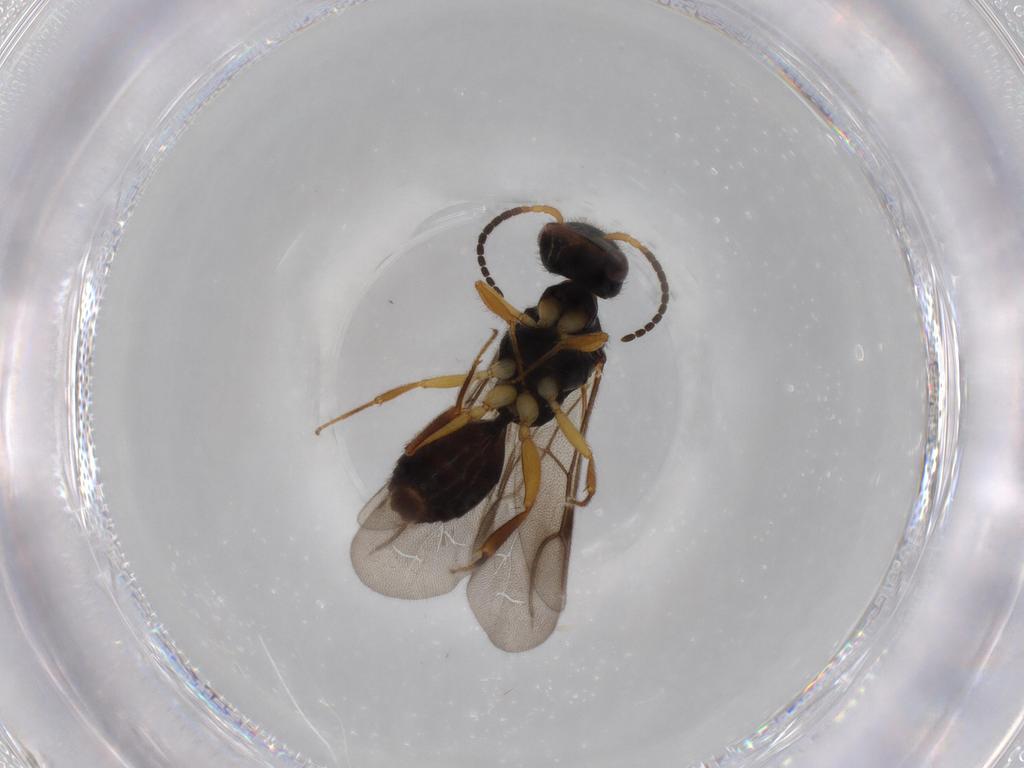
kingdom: Animalia
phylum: Arthropoda
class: Insecta
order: Hymenoptera
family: Bethylidae
